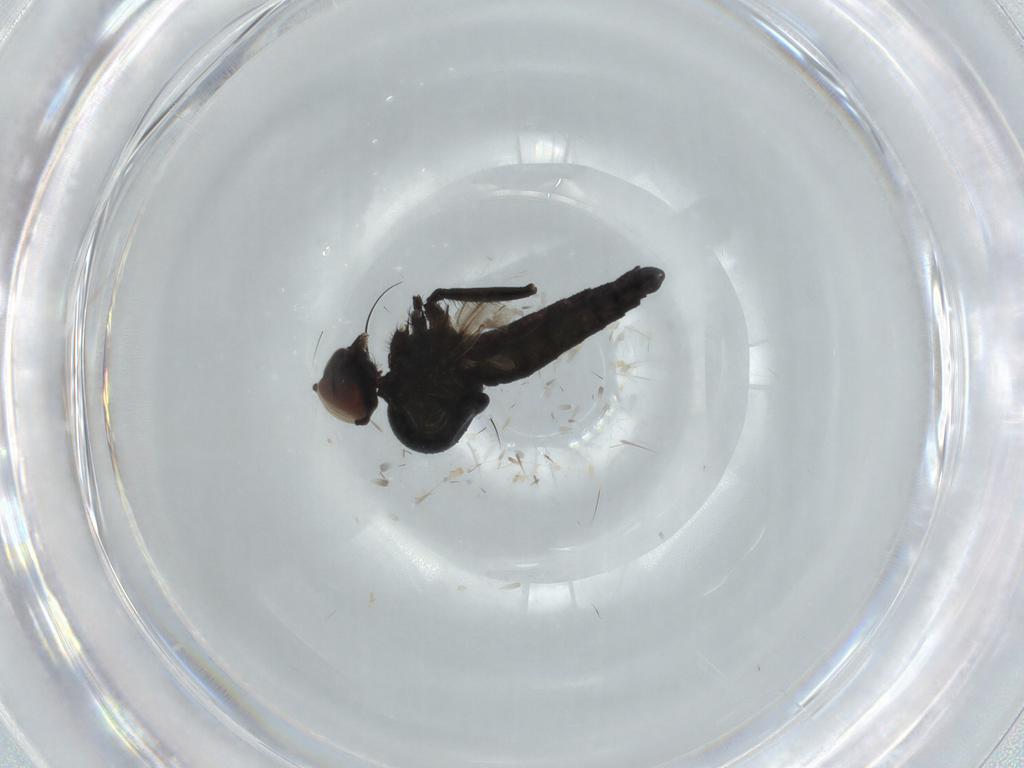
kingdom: Animalia
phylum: Arthropoda
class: Insecta
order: Diptera
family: Hybotidae
